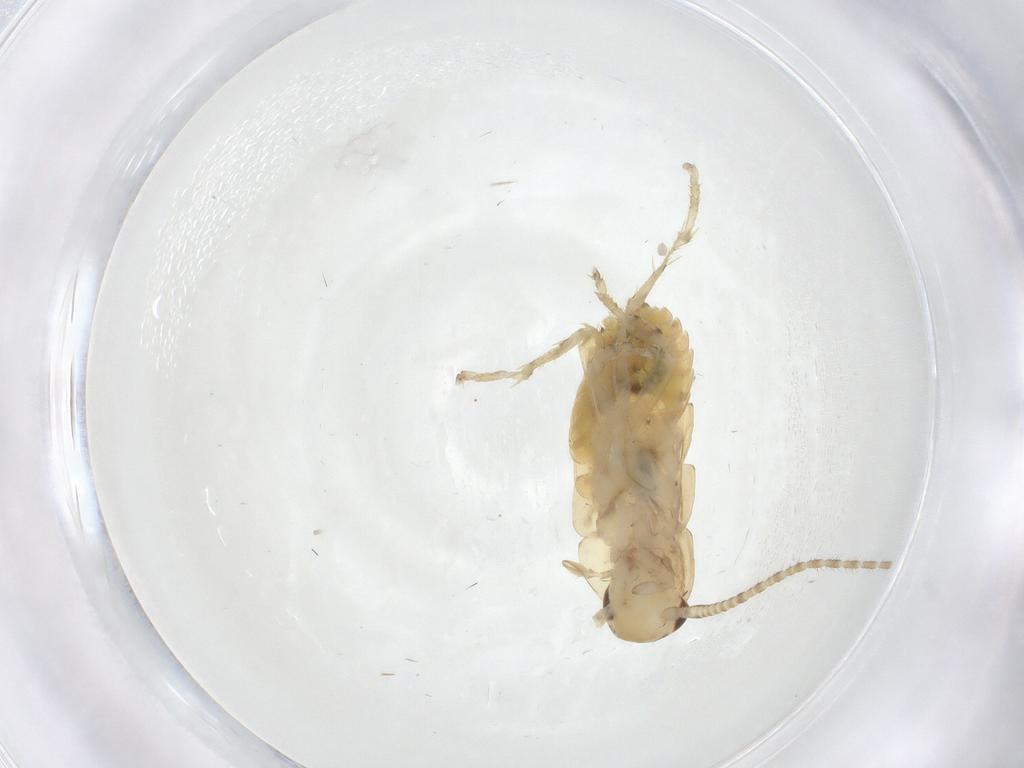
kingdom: Animalia
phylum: Arthropoda
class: Insecta
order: Blattodea
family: Ectobiidae
